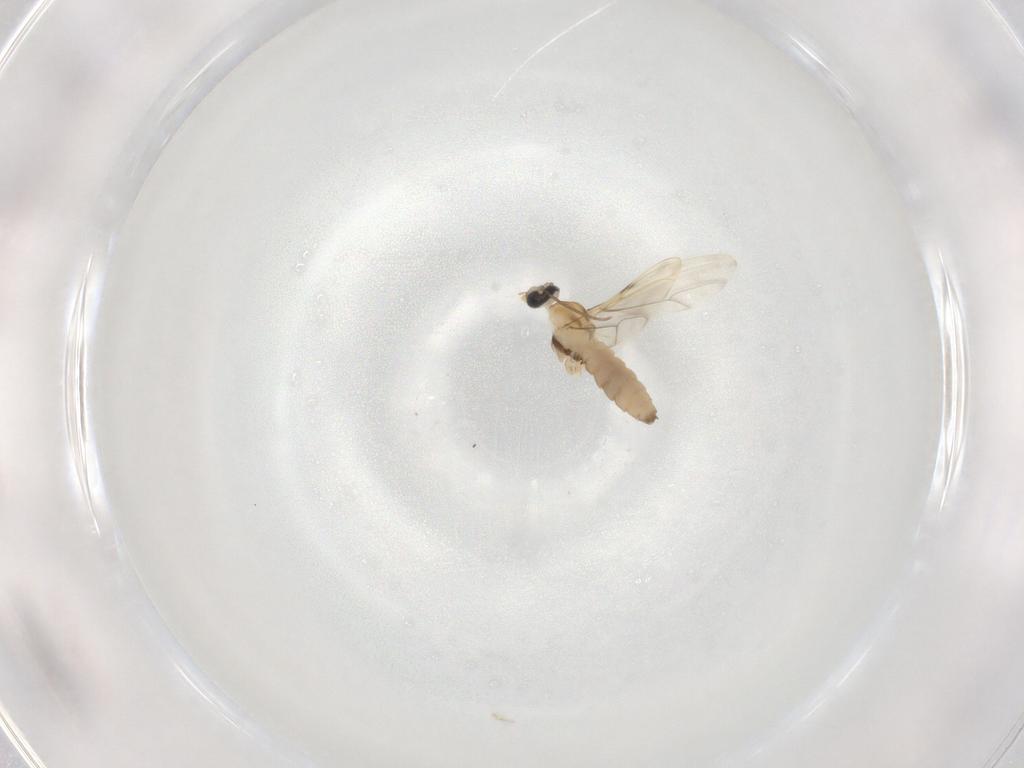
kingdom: Animalia
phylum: Arthropoda
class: Insecta
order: Diptera
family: Cecidomyiidae
